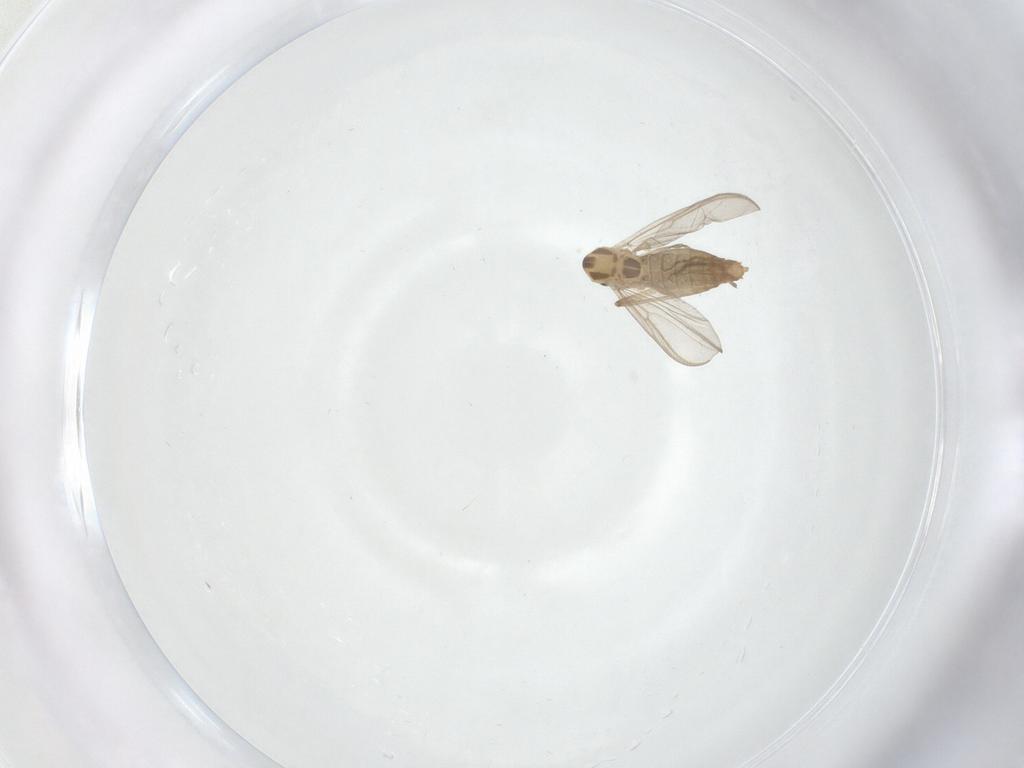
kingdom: Animalia
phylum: Arthropoda
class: Insecta
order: Diptera
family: Chironomidae
